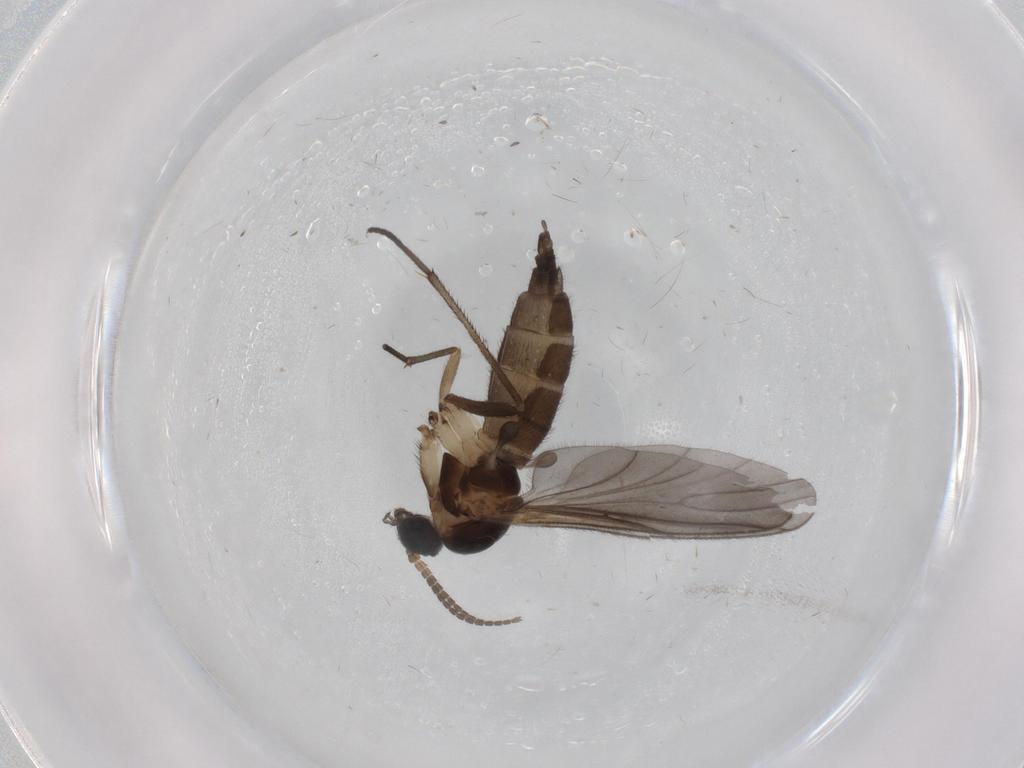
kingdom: Animalia
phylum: Arthropoda
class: Insecta
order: Diptera
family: Sciaridae
